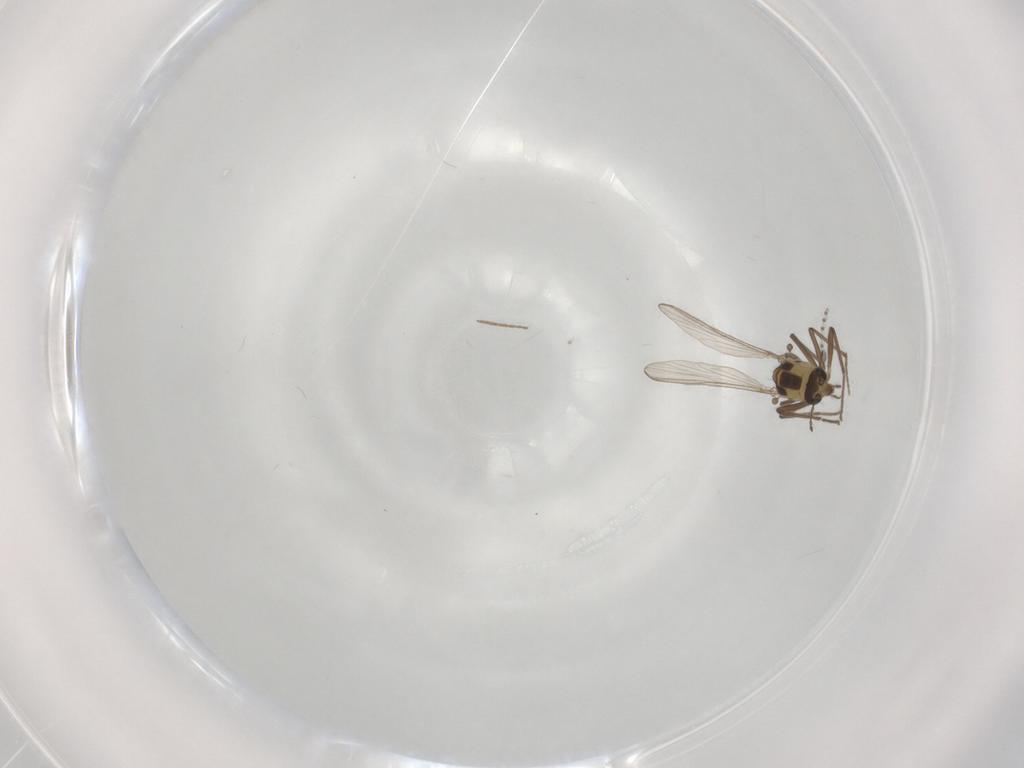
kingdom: Animalia
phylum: Arthropoda
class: Insecta
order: Diptera
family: Psychodidae
